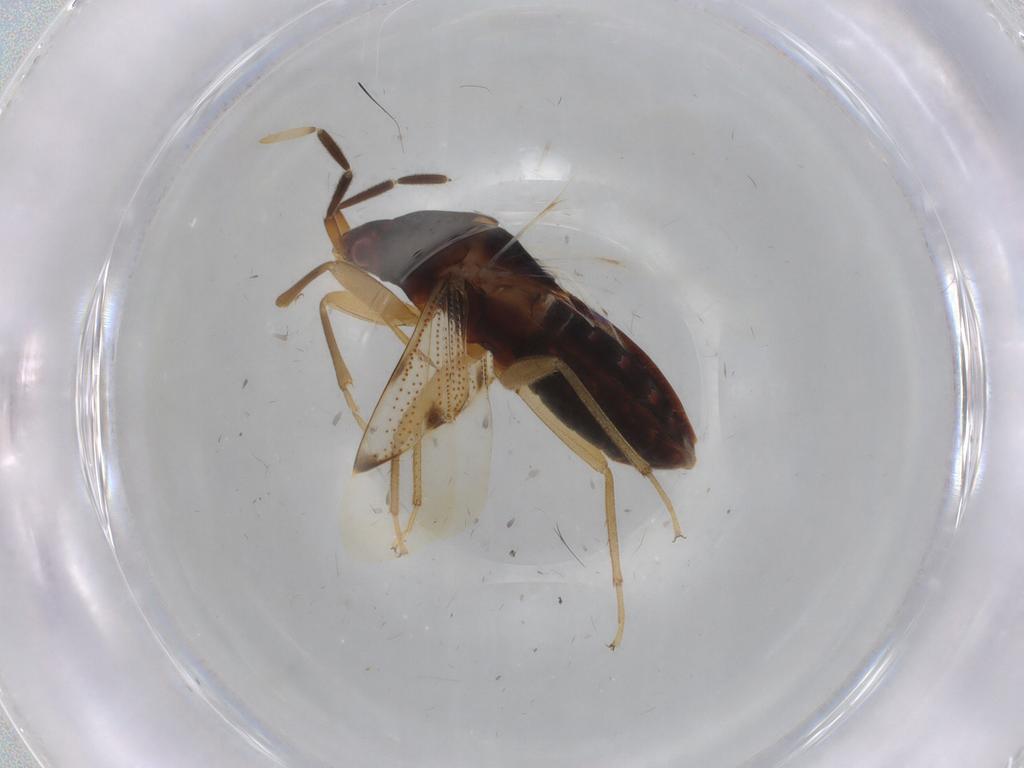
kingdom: Animalia
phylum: Arthropoda
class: Insecta
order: Hemiptera
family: Rhyparochromidae
